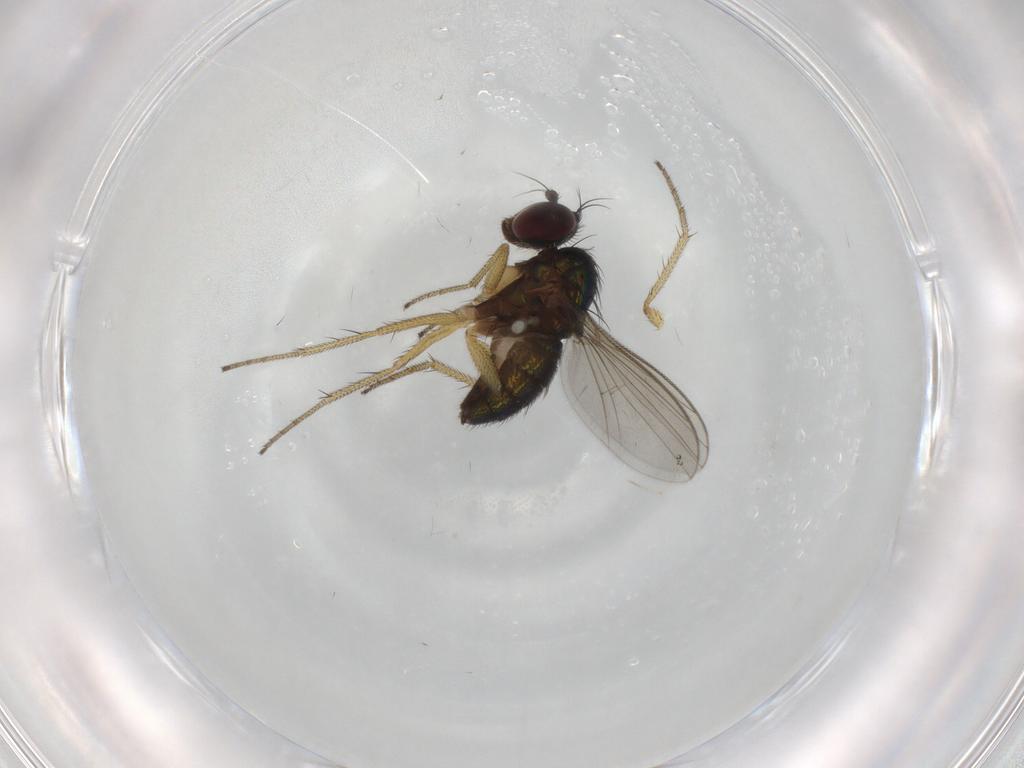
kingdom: Animalia
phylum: Arthropoda
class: Insecta
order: Diptera
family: Dolichopodidae
